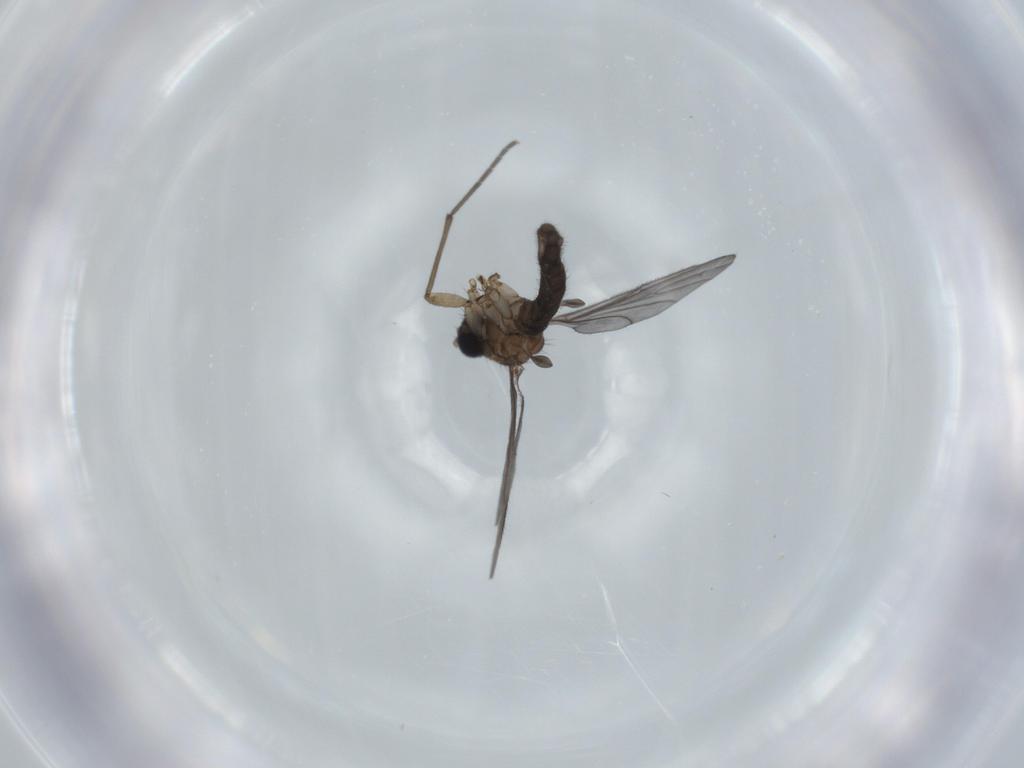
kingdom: Animalia
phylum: Arthropoda
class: Insecta
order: Diptera
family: Sciaridae
